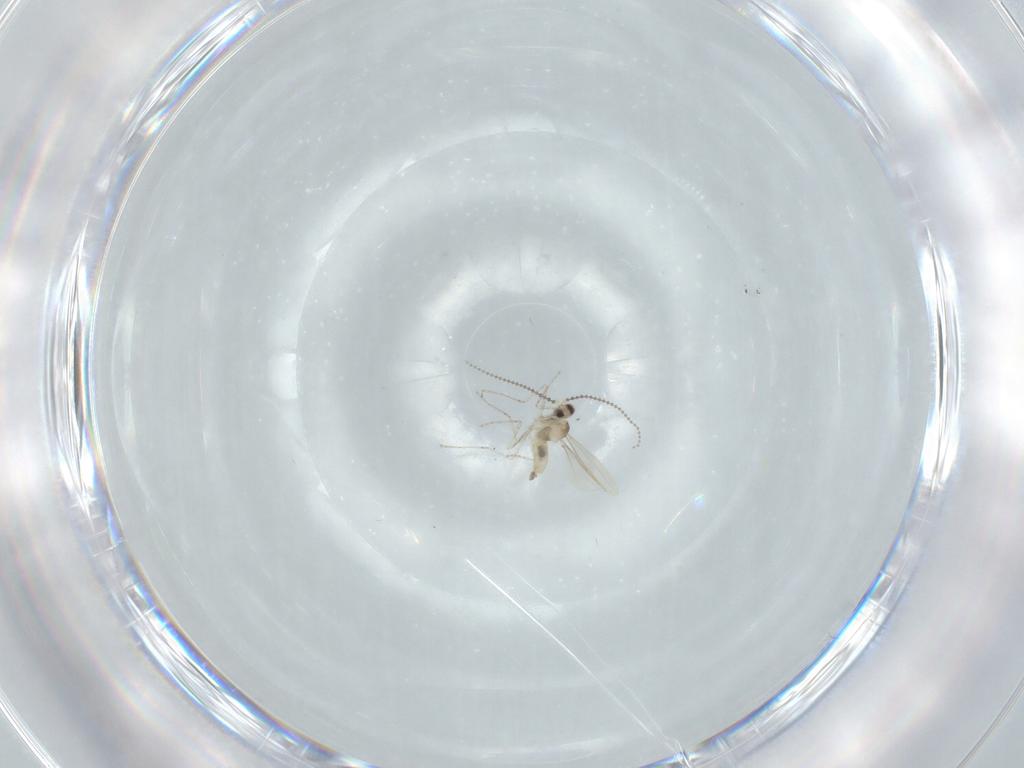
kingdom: Animalia
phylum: Arthropoda
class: Insecta
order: Diptera
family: Cecidomyiidae
